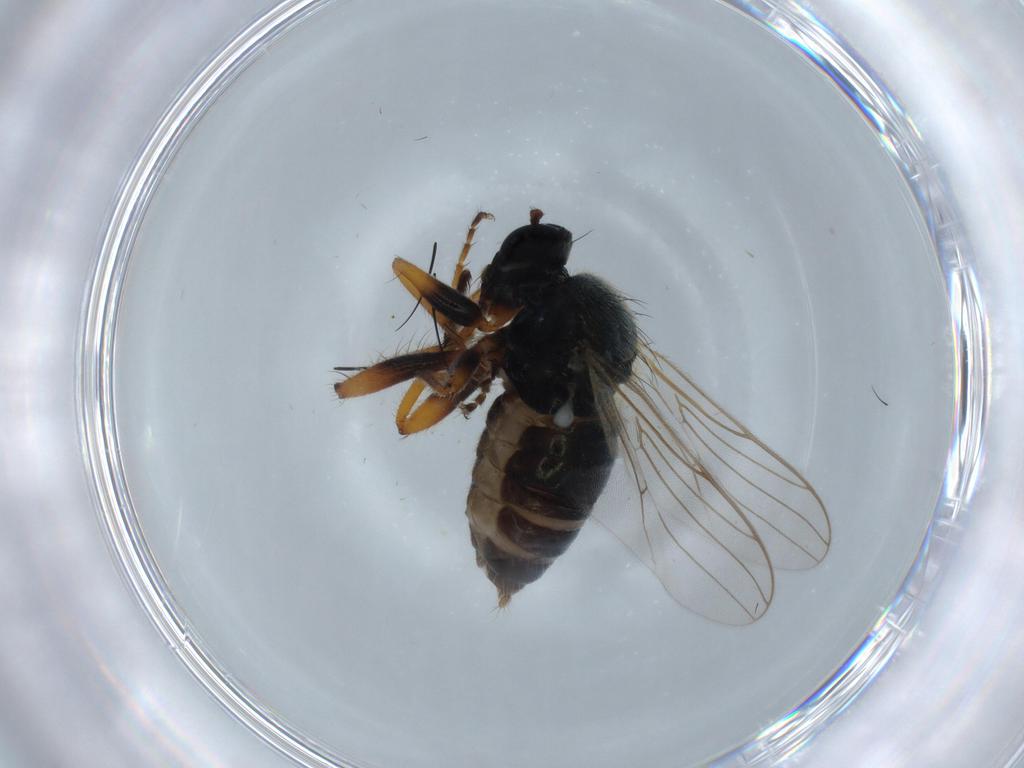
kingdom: Animalia
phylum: Arthropoda
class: Insecta
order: Diptera
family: Hybotidae
